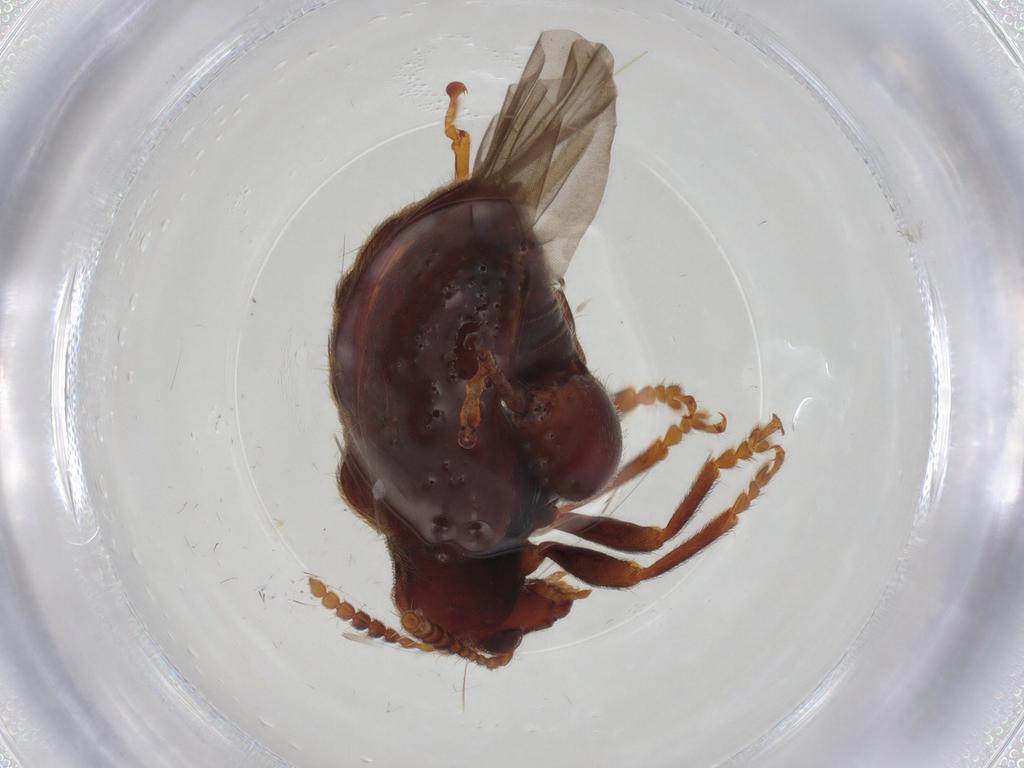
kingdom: Animalia
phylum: Arthropoda
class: Insecta
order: Coleoptera
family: Chrysomelidae
